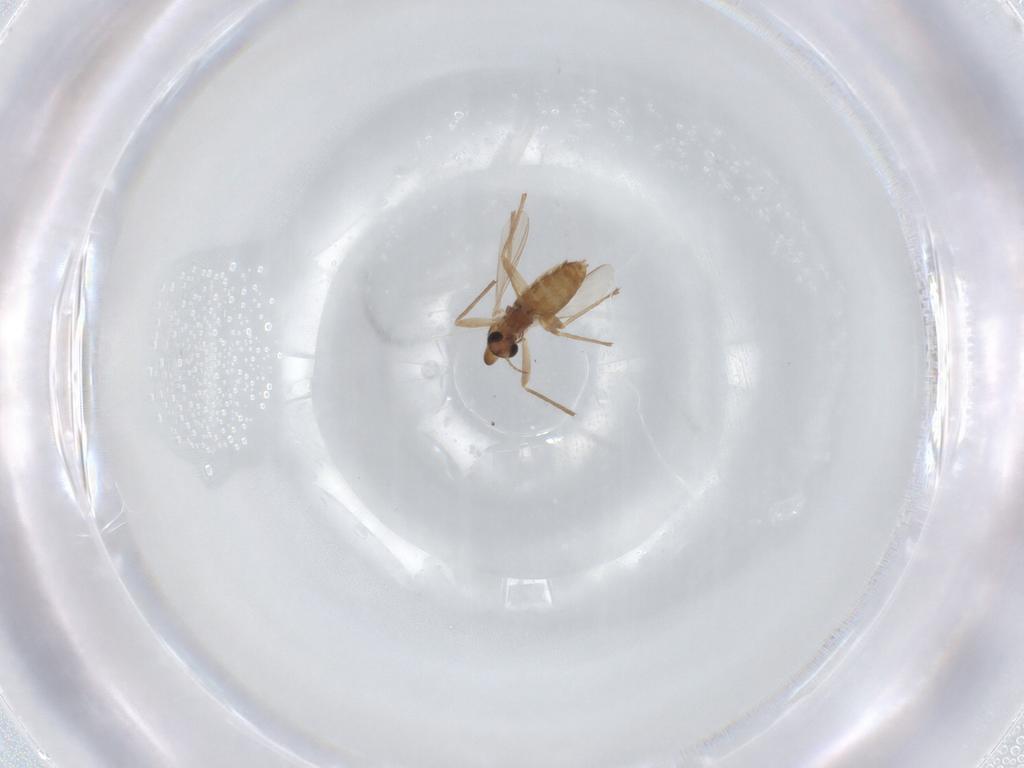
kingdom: Animalia
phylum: Arthropoda
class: Insecta
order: Diptera
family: Chironomidae
